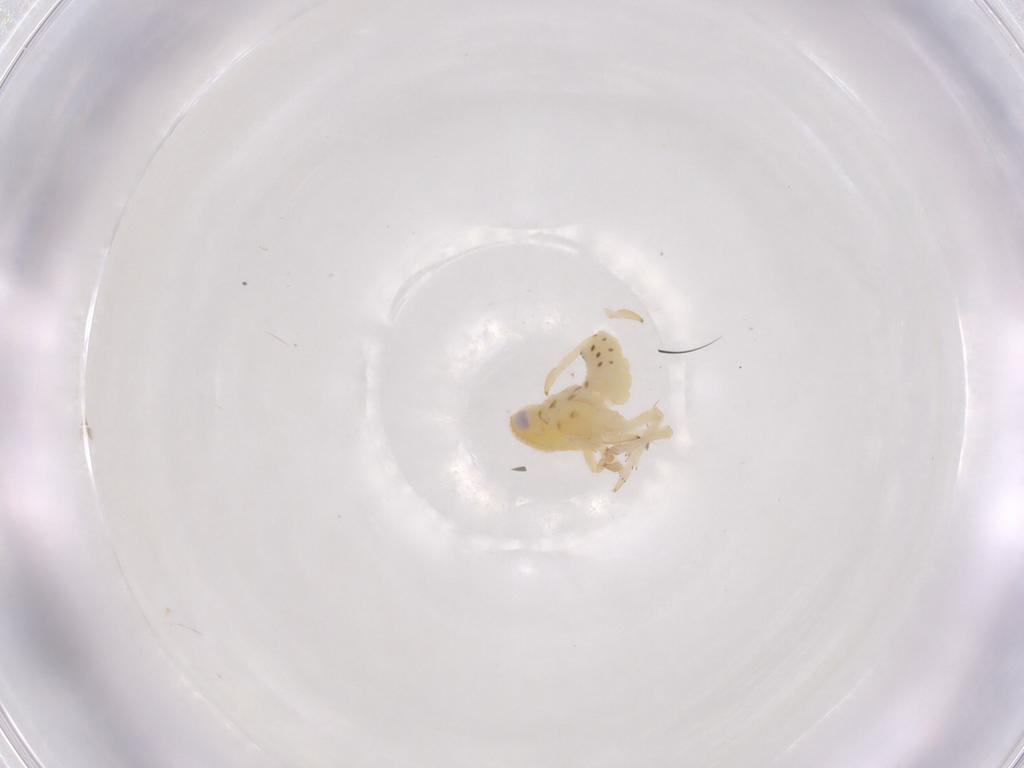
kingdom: Animalia
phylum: Arthropoda
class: Insecta
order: Hemiptera
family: Tropiduchidae
